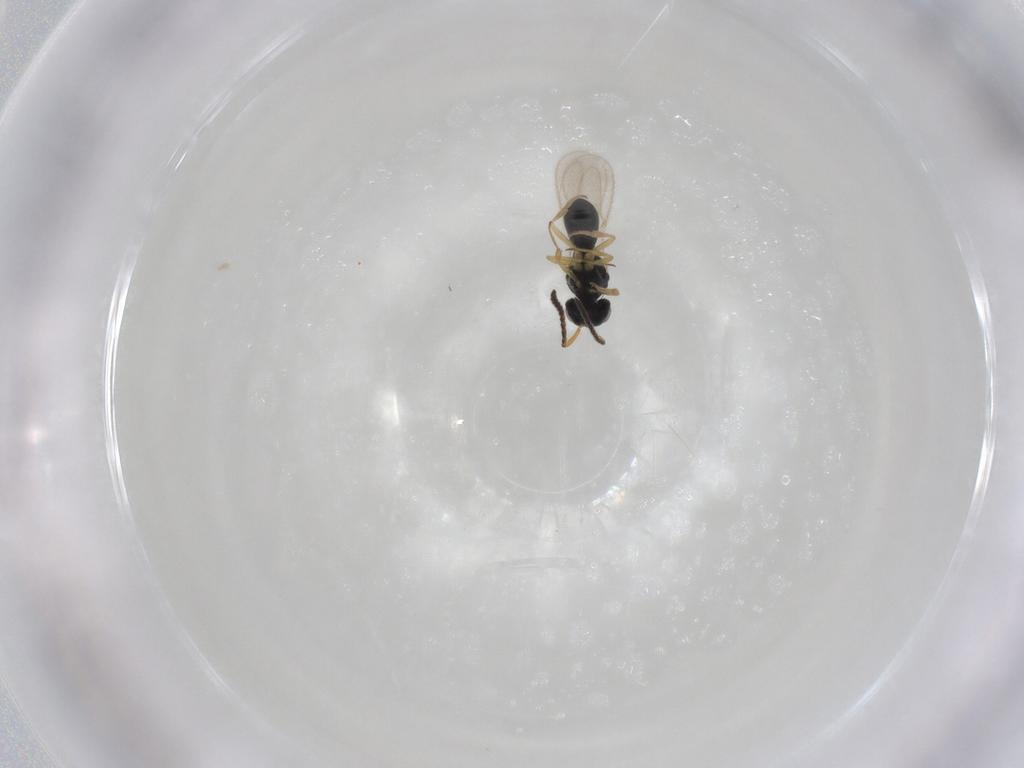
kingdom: Animalia
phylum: Arthropoda
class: Insecta
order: Hymenoptera
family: Scelionidae
